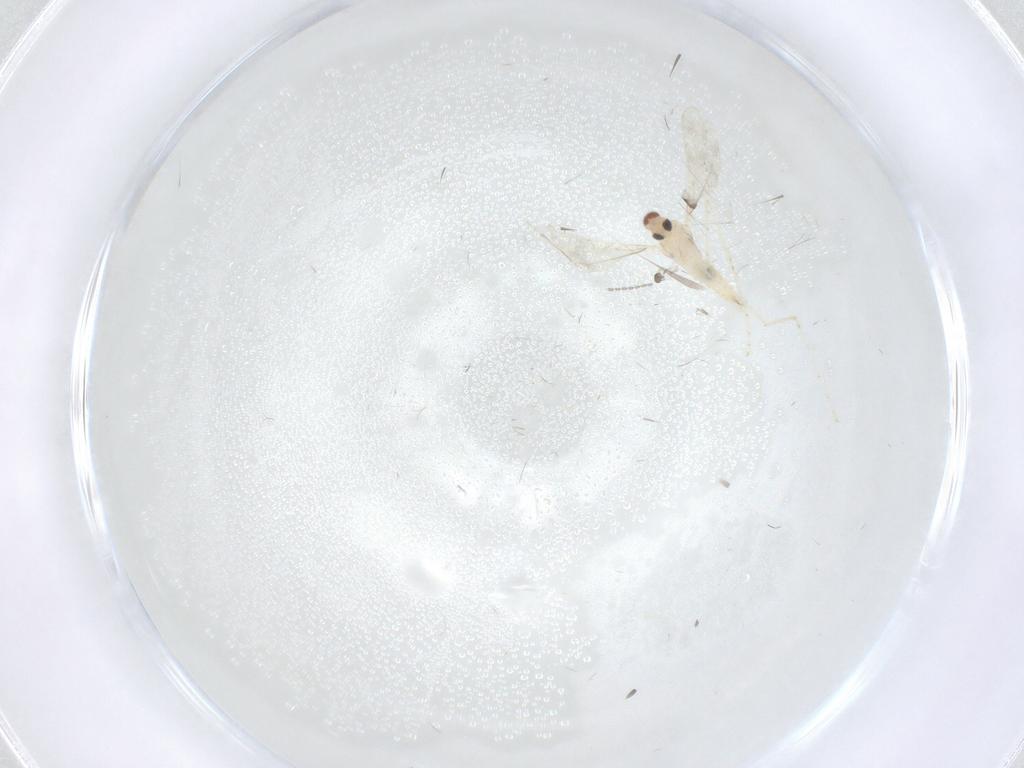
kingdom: Animalia
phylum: Arthropoda
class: Insecta
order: Diptera
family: Cecidomyiidae
